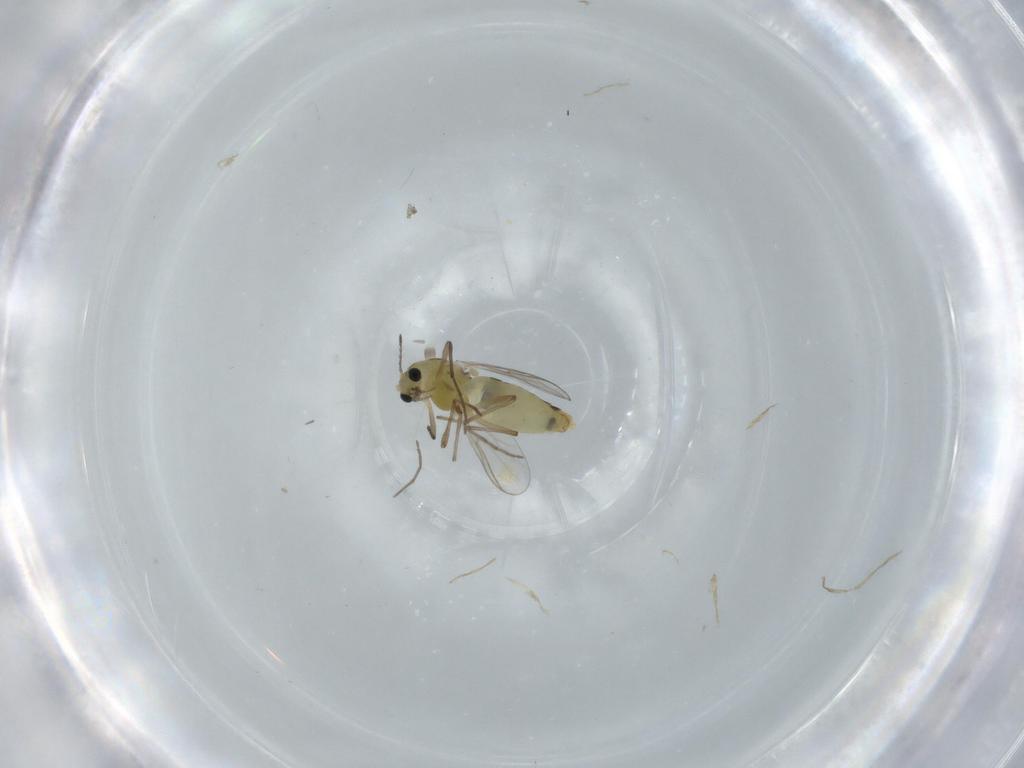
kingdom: Animalia
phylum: Arthropoda
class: Insecta
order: Diptera
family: Chironomidae
